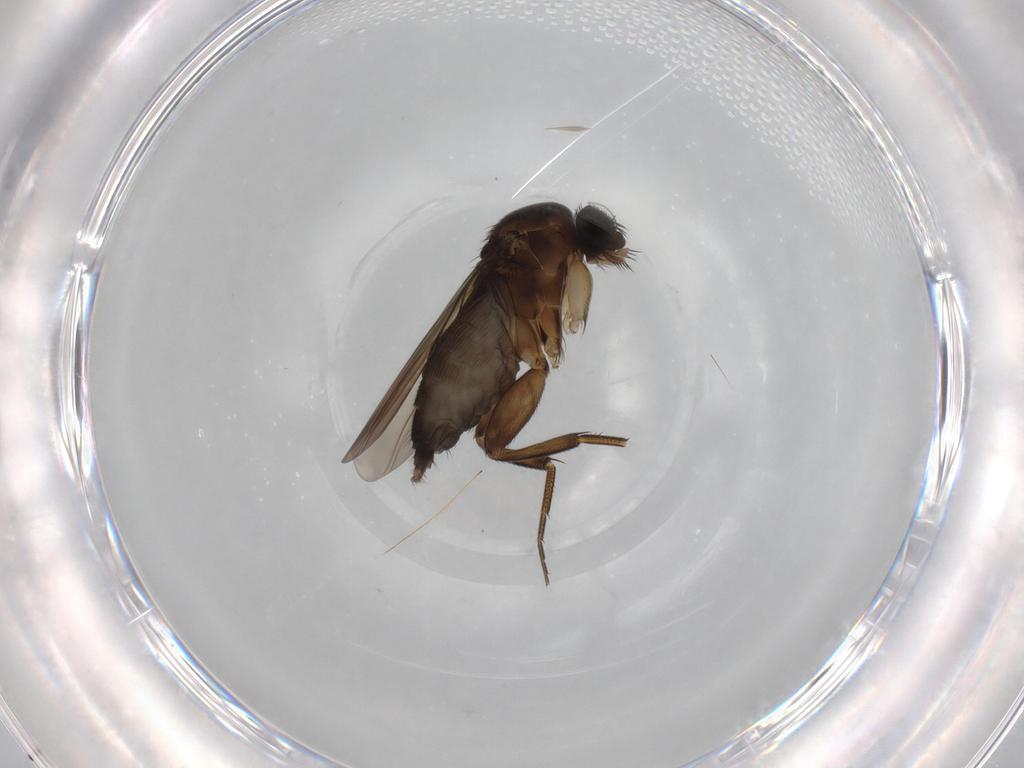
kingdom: Animalia
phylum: Arthropoda
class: Insecta
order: Diptera
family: Phoridae
